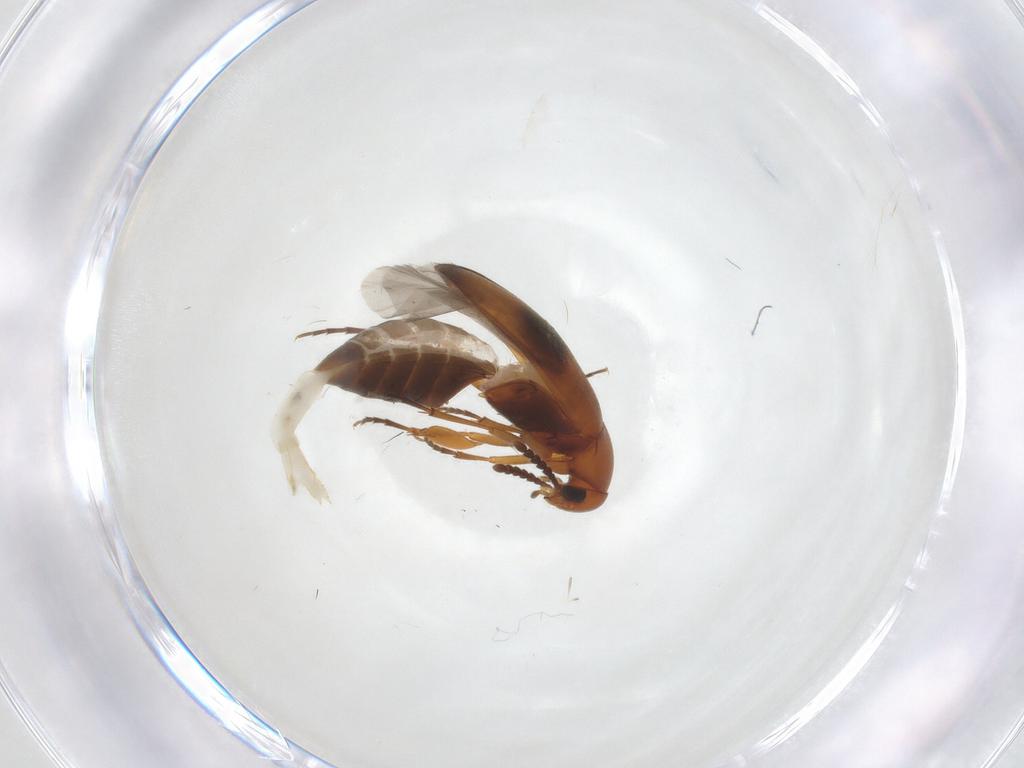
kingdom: Animalia
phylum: Arthropoda
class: Insecta
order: Coleoptera
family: Scraptiidae
